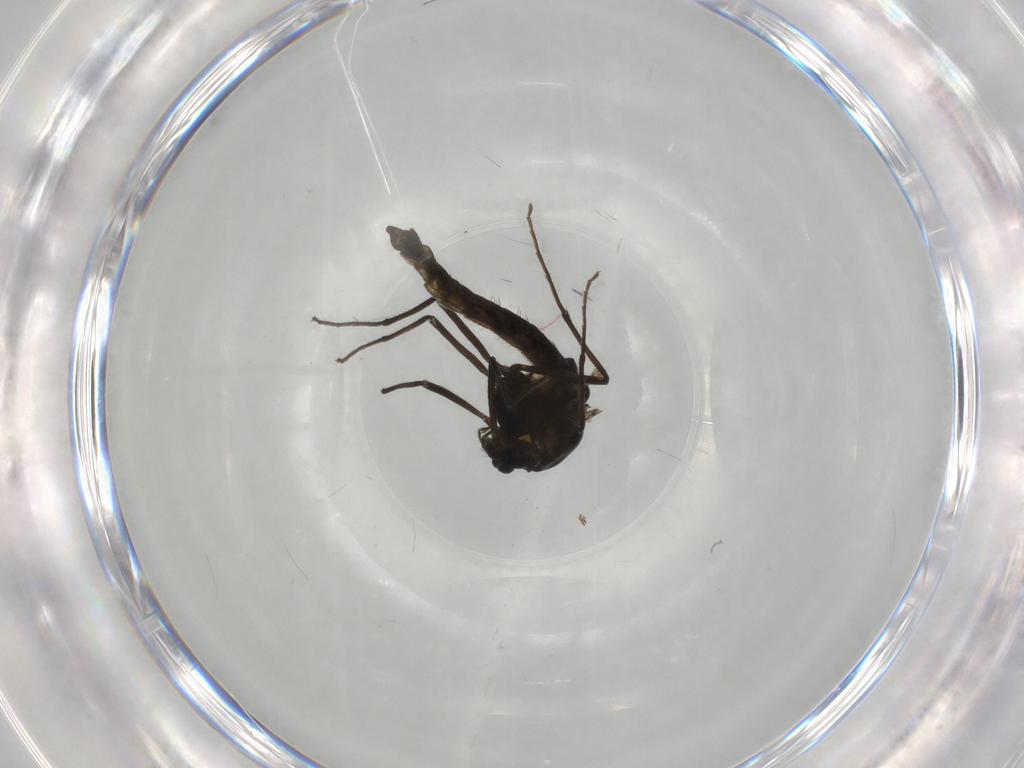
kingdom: Animalia
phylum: Arthropoda
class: Insecta
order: Diptera
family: Muscidae
